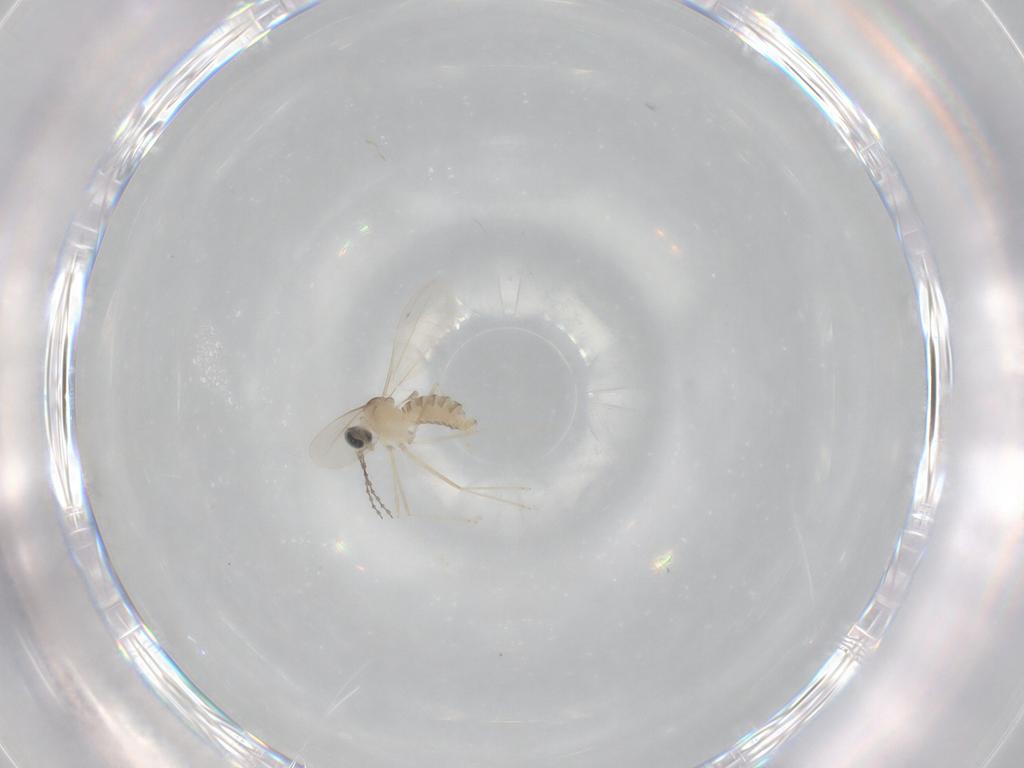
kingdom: Animalia
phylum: Arthropoda
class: Insecta
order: Diptera
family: Cecidomyiidae
